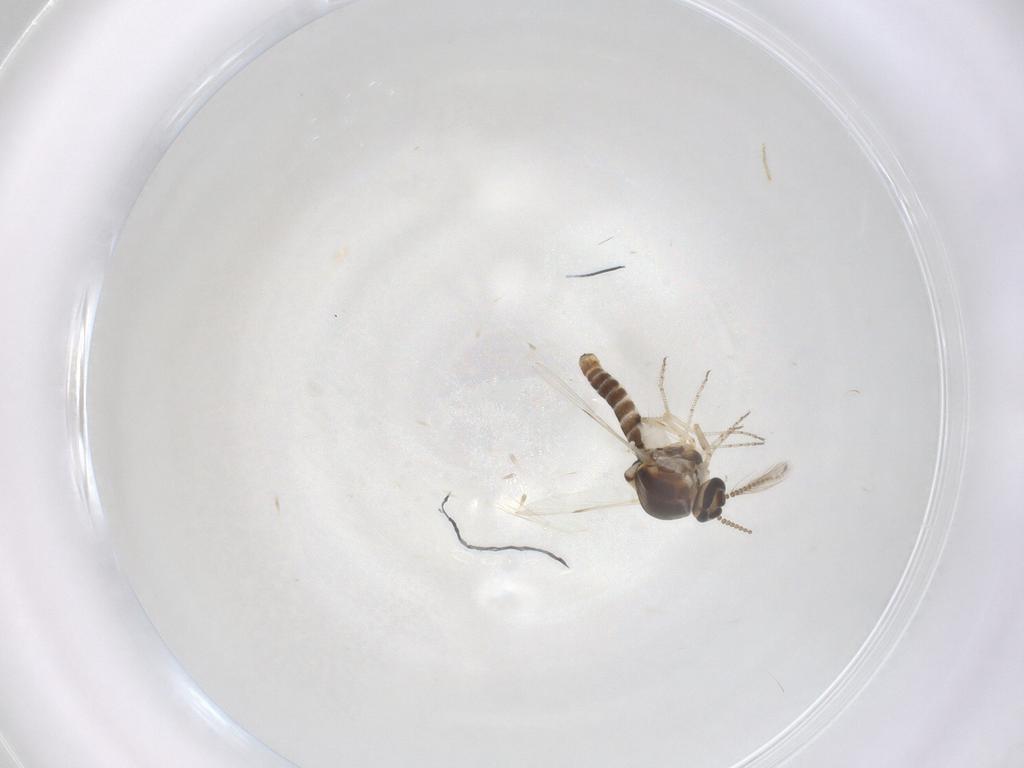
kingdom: Animalia
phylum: Arthropoda
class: Insecta
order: Diptera
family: Ceratopogonidae
